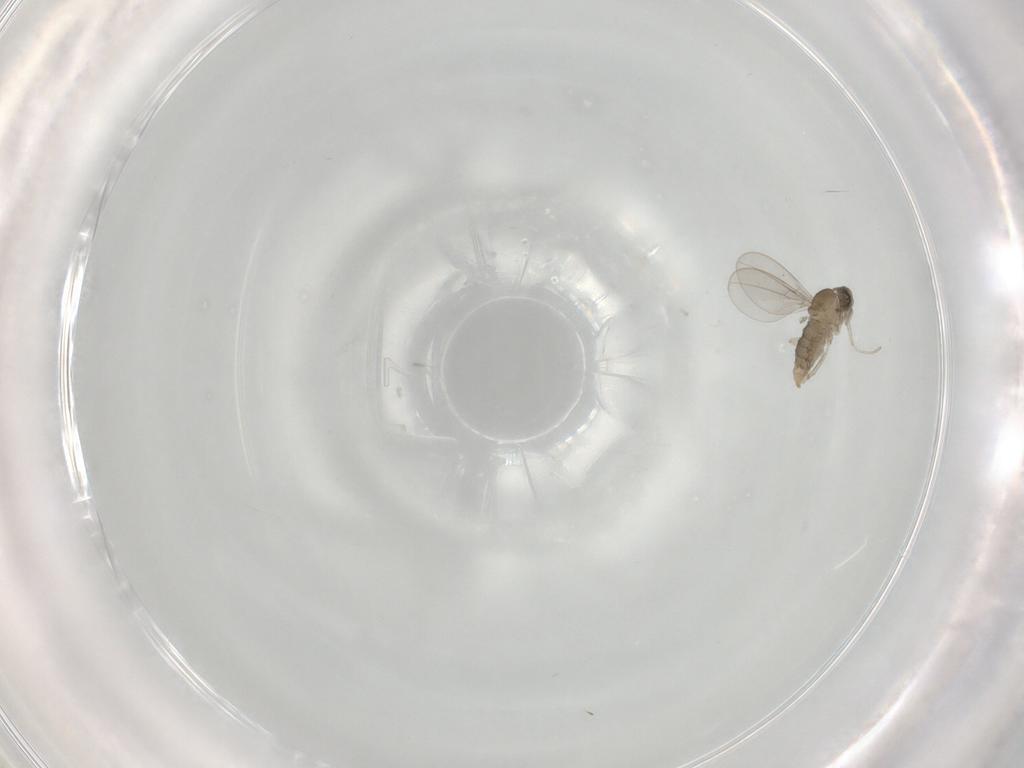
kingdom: Animalia
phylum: Arthropoda
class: Insecta
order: Diptera
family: Cecidomyiidae
